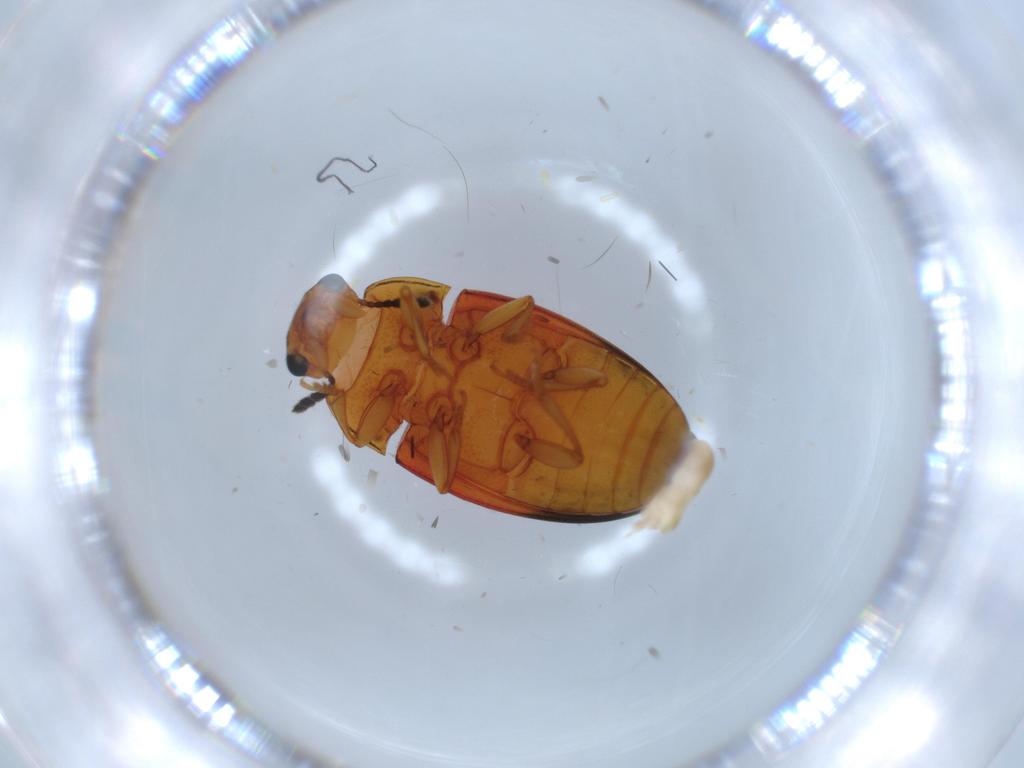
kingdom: Animalia
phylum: Arthropoda
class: Insecta
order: Coleoptera
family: Erotylidae
